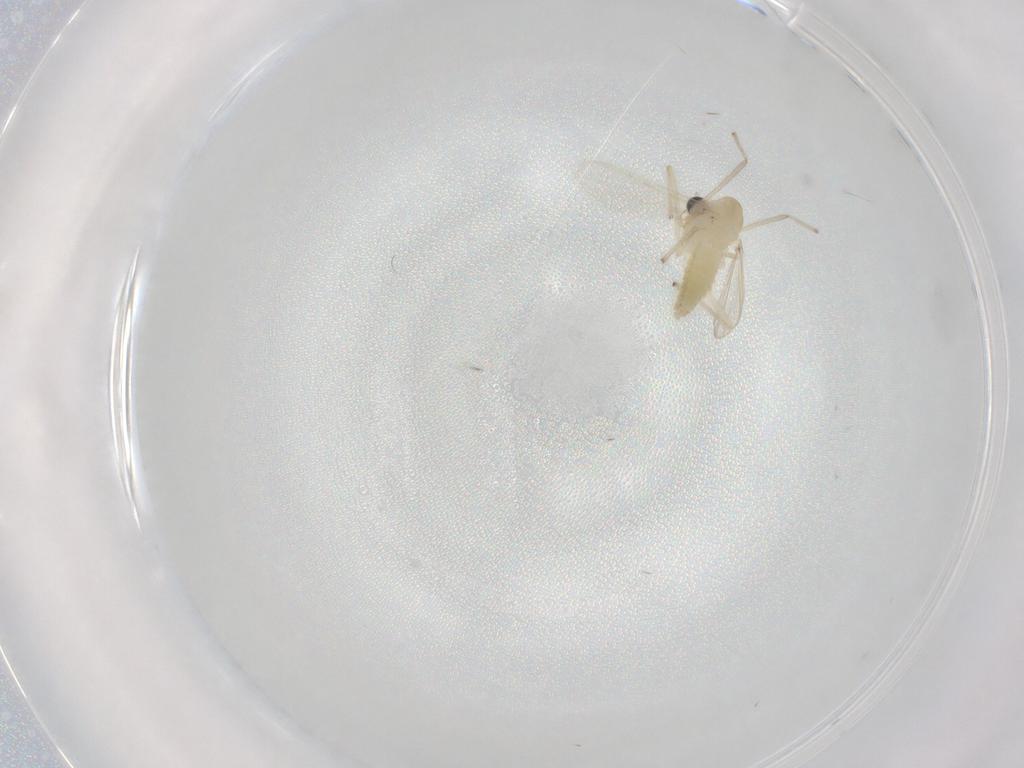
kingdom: Animalia
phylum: Arthropoda
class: Insecta
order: Diptera
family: Chironomidae
